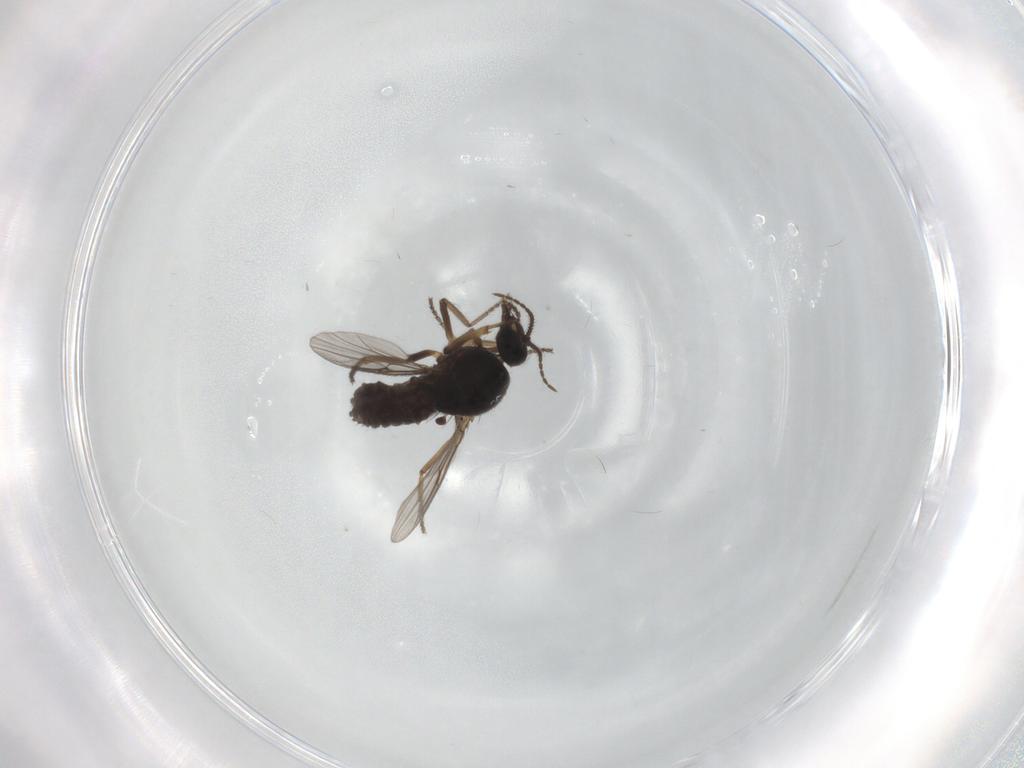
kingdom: Animalia
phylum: Arthropoda
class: Insecta
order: Diptera
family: Ceratopogonidae
